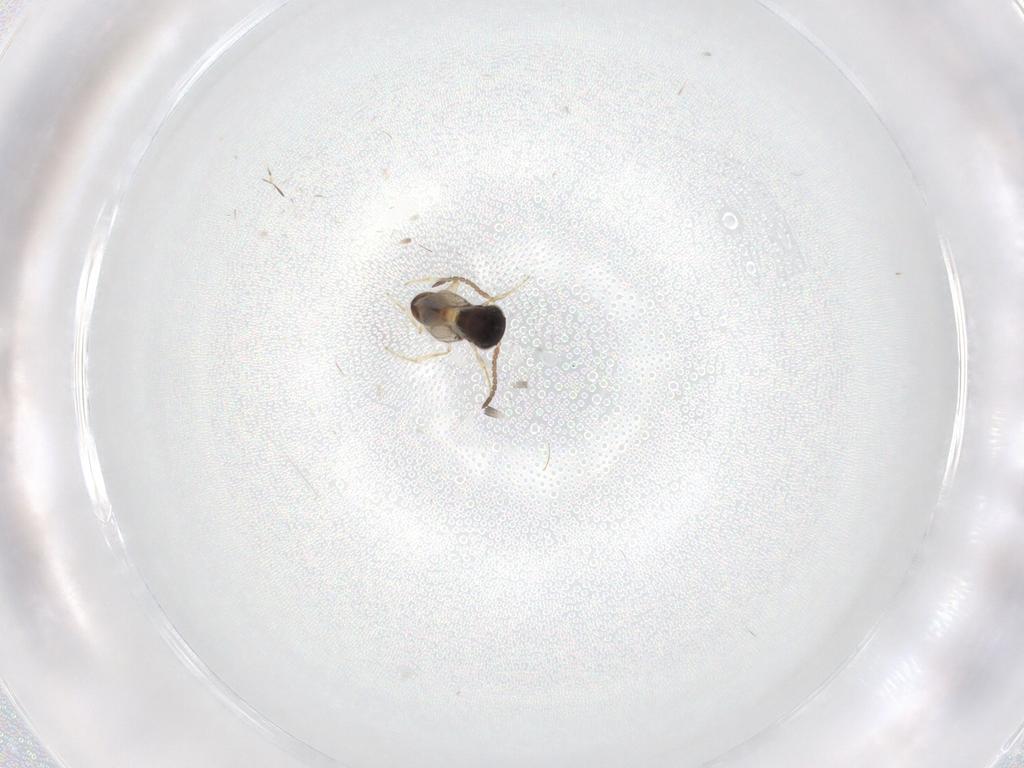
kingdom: Animalia
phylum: Arthropoda
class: Insecta
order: Hymenoptera
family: Scelionidae
